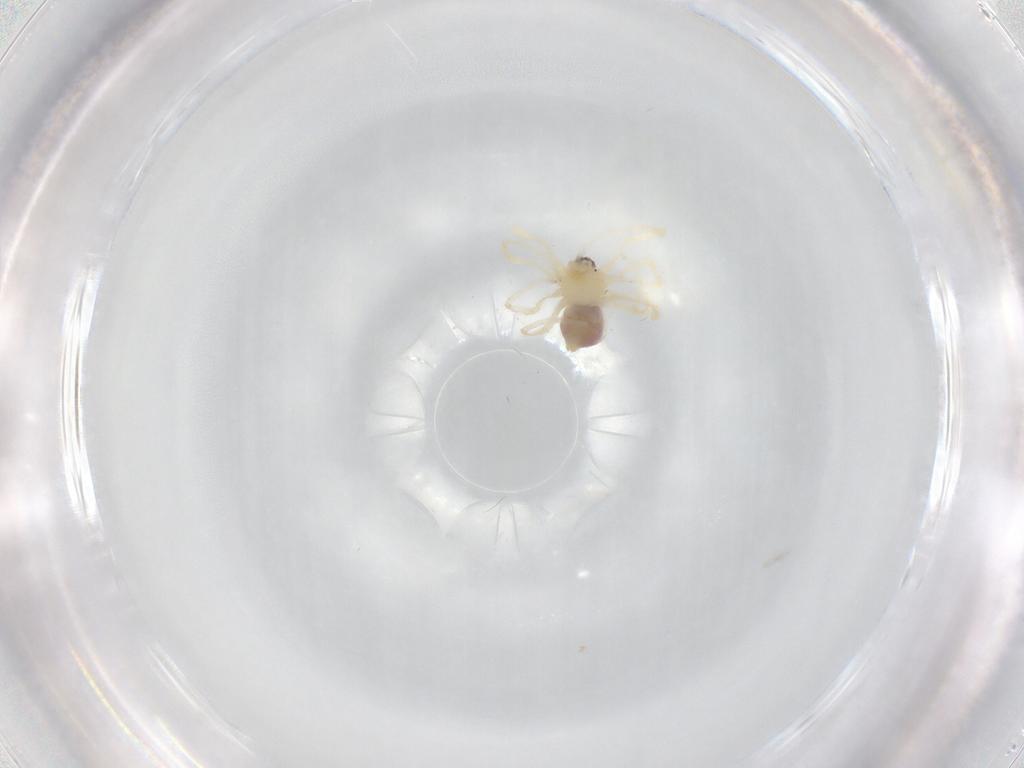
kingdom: Animalia
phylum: Arthropoda
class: Arachnida
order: Araneae
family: Pholcidae
